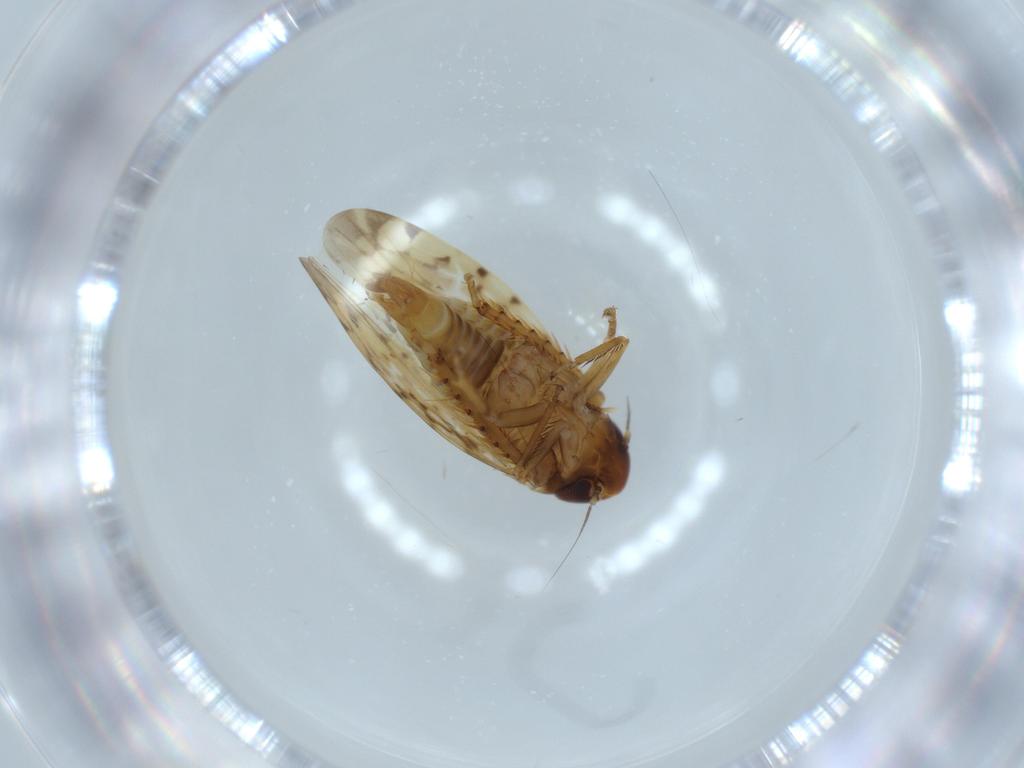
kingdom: Animalia
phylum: Arthropoda
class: Insecta
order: Hemiptera
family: Cicadellidae
